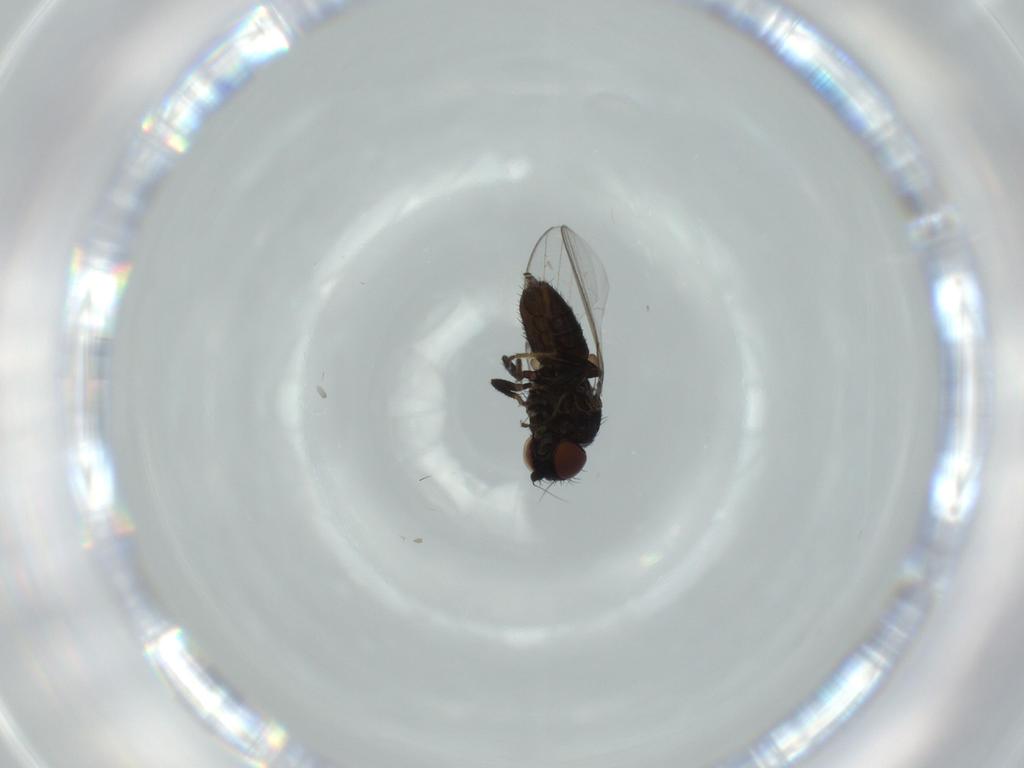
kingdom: Animalia
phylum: Arthropoda
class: Insecta
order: Diptera
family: Milichiidae
